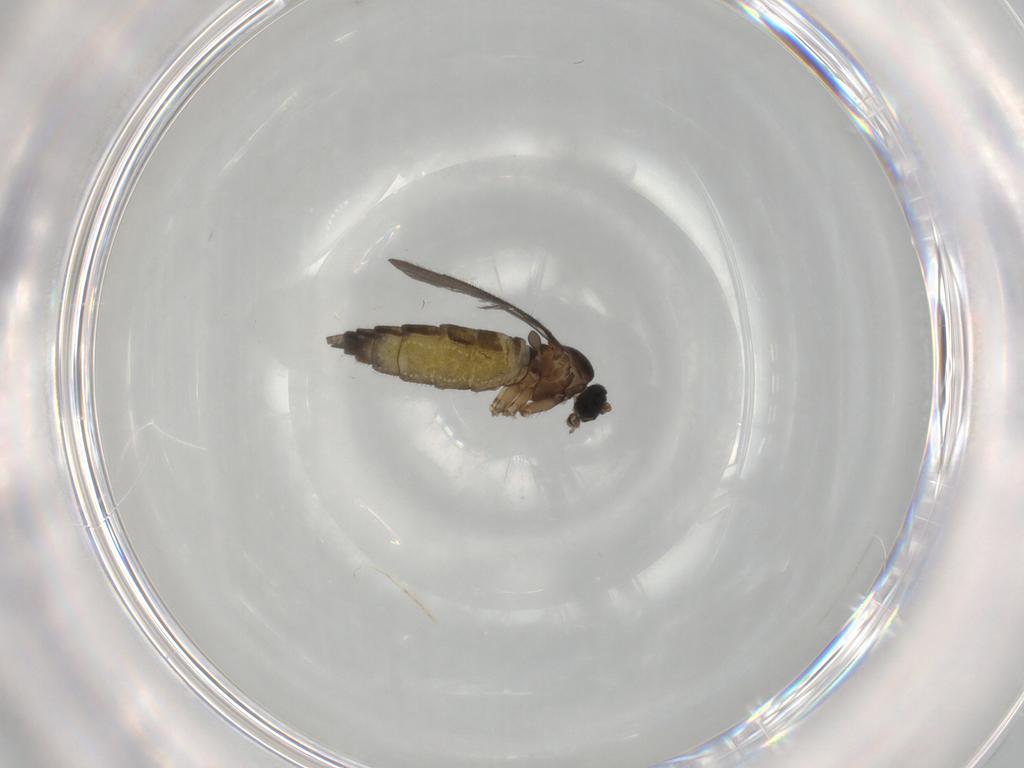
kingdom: Animalia
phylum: Arthropoda
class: Insecta
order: Diptera
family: Sciaridae
